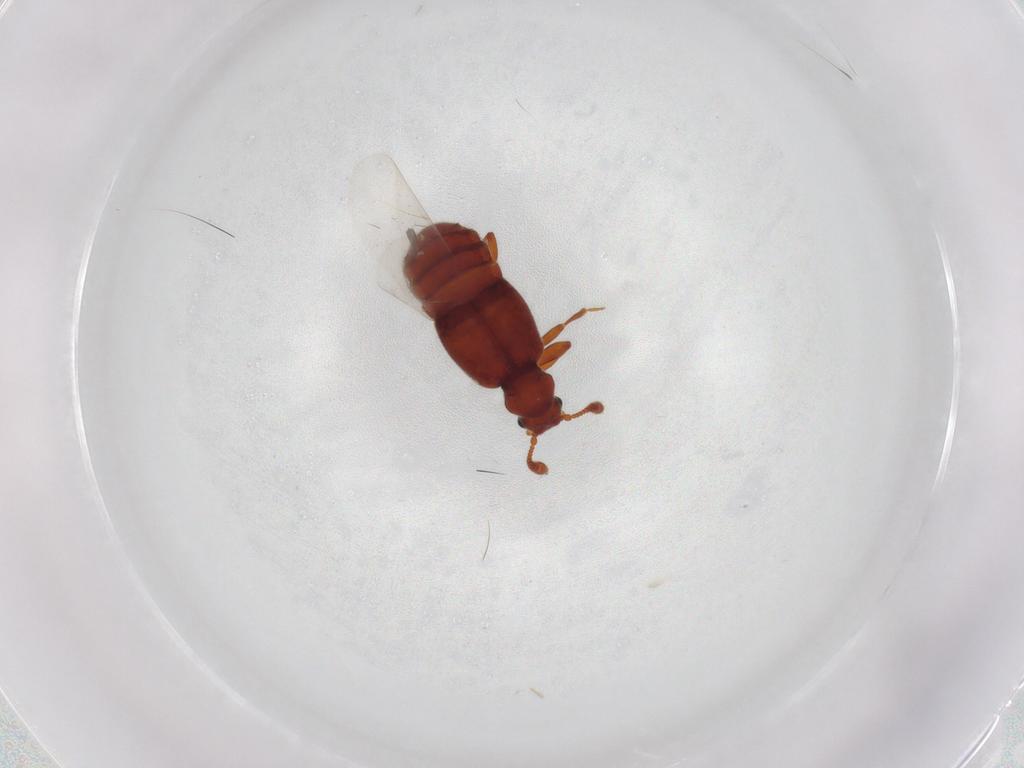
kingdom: Animalia
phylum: Arthropoda
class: Insecta
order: Coleoptera
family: Staphylinidae
